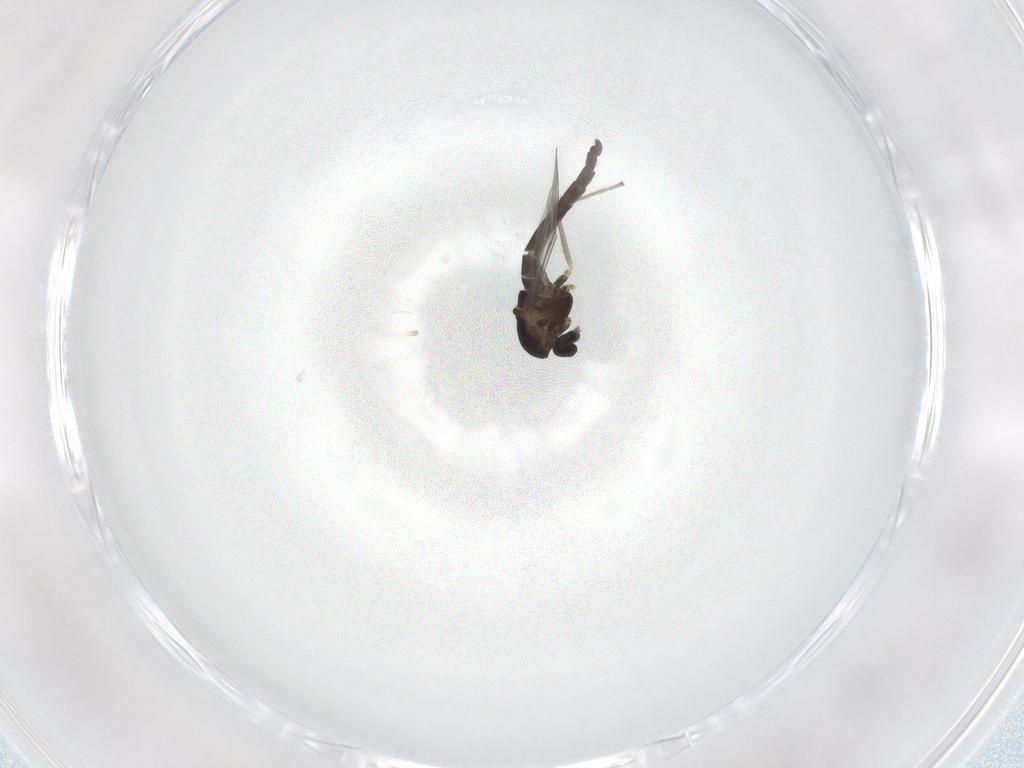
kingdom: Animalia
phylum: Arthropoda
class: Insecta
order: Diptera
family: Chironomidae
